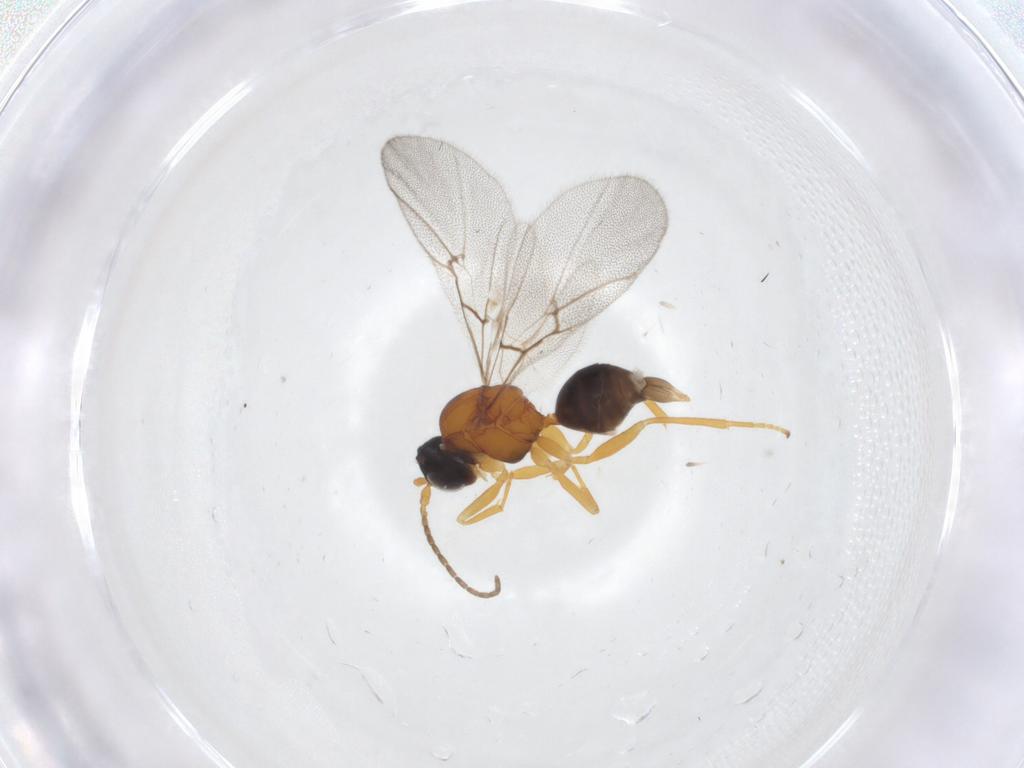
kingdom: Animalia
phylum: Arthropoda
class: Insecta
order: Hymenoptera
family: Cynipidae
